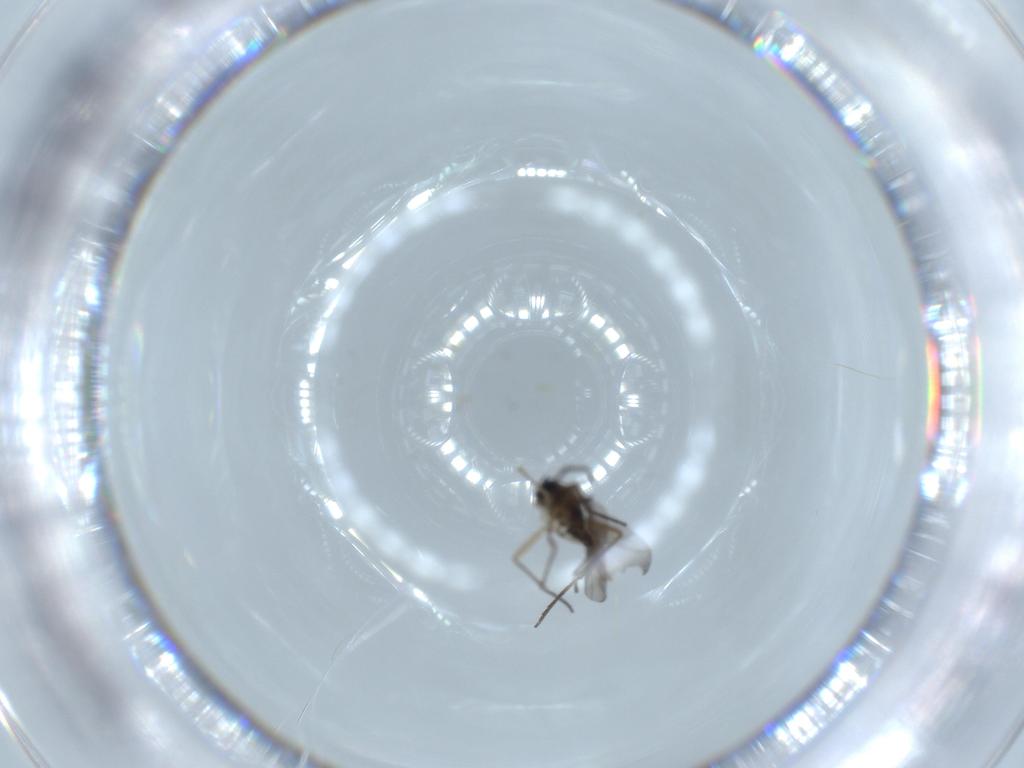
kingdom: Animalia
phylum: Arthropoda
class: Insecta
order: Diptera
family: Sciaridae
